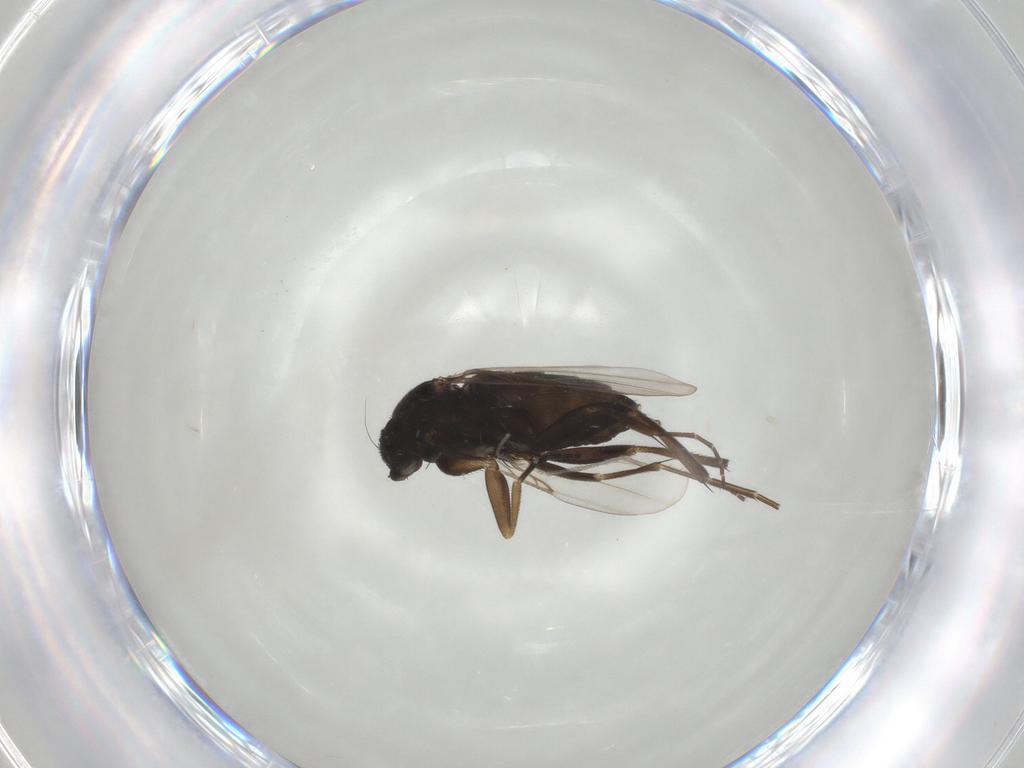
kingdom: Animalia
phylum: Arthropoda
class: Insecta
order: Diptera
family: Phoridae
